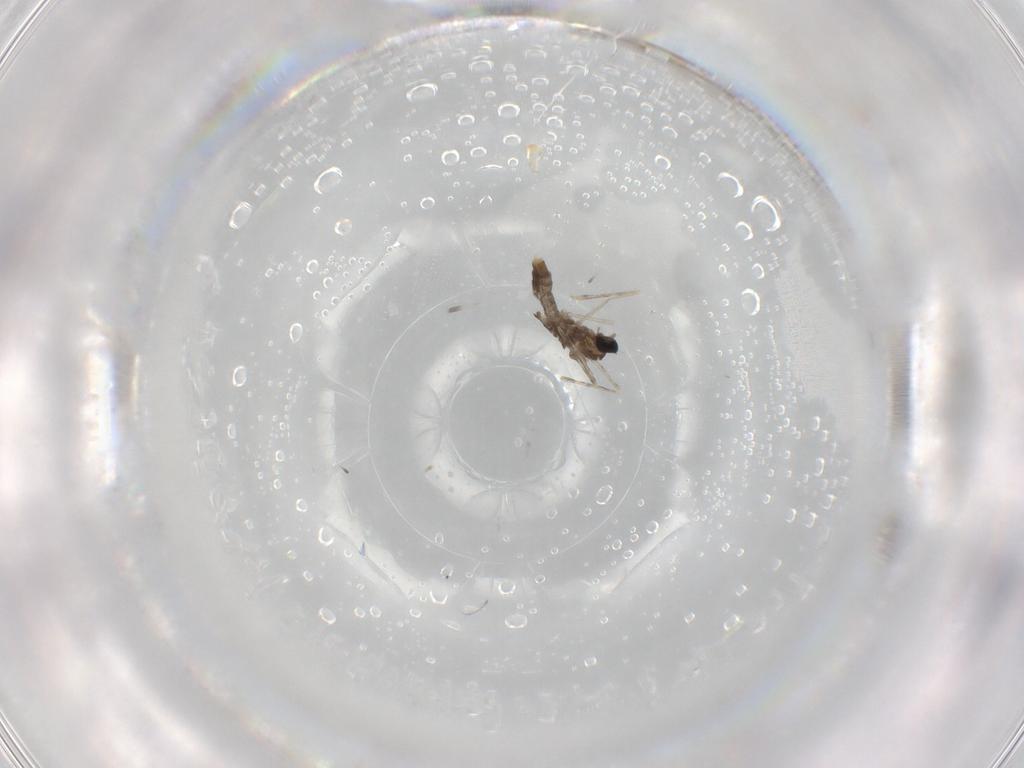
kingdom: Animalia
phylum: Arthropoda
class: Insecta
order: Diptera
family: Cecidomyiidae
